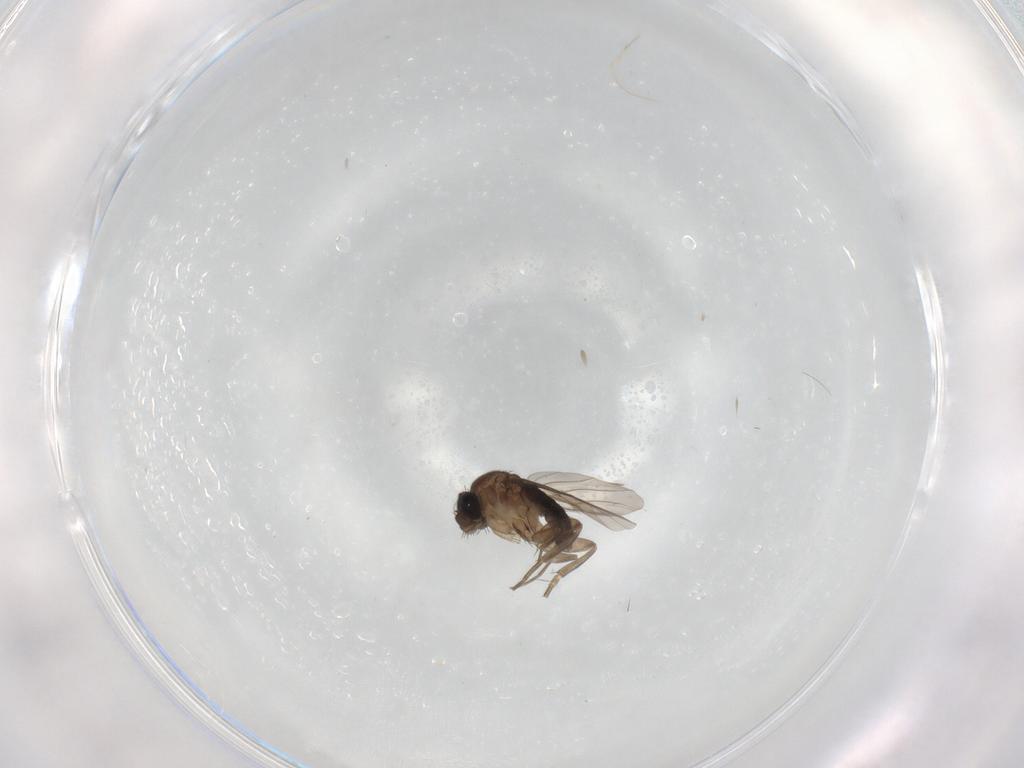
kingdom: Animalia
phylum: Arthropoda
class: Insecta
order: Diptera
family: Phoridae
